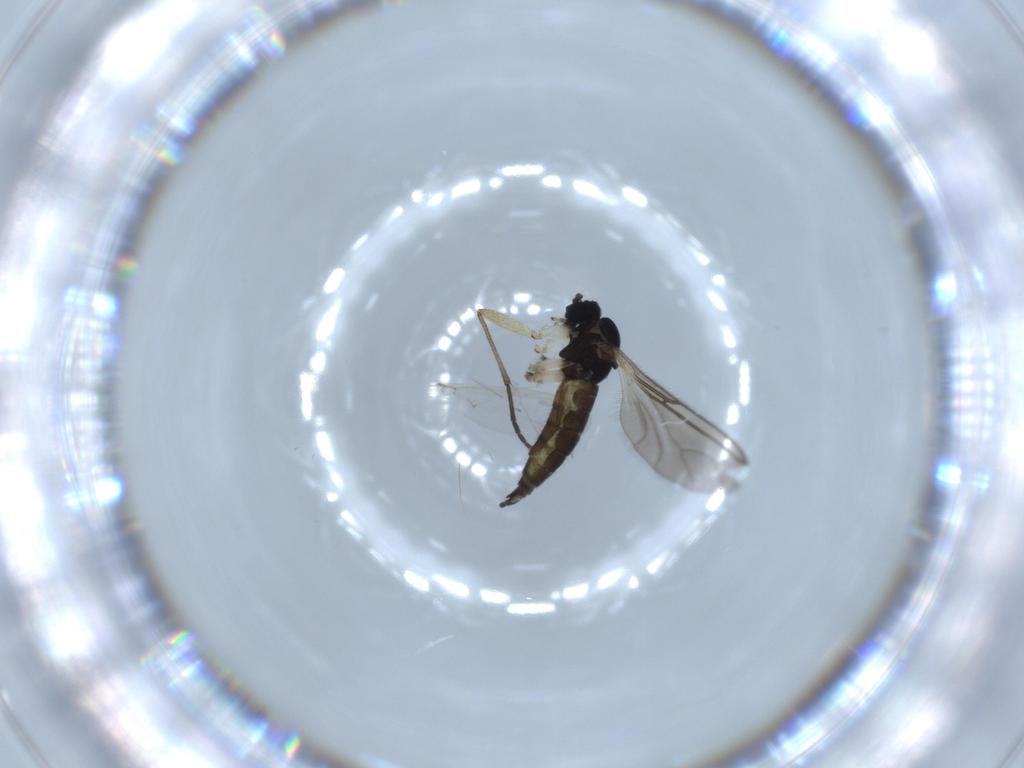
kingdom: Animalia
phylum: Arthropoda
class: Insecta
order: Diptera
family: Sciaridae
